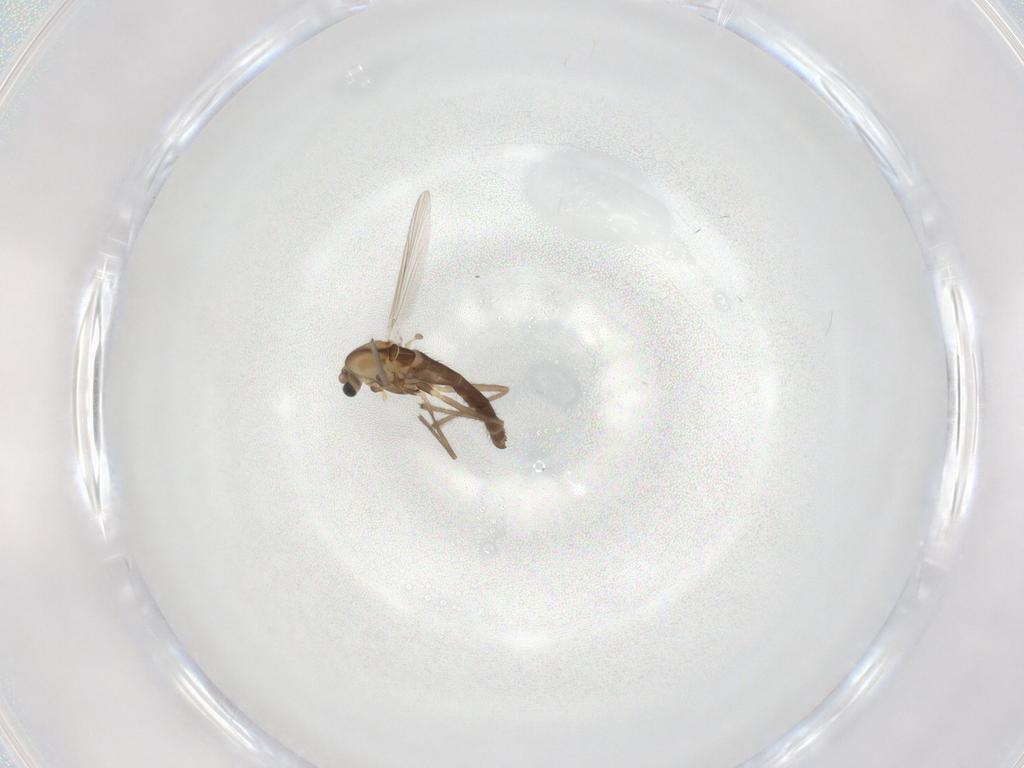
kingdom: Animalia
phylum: Arthropoda
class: Insecta
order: Diptera
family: Chironomidae
